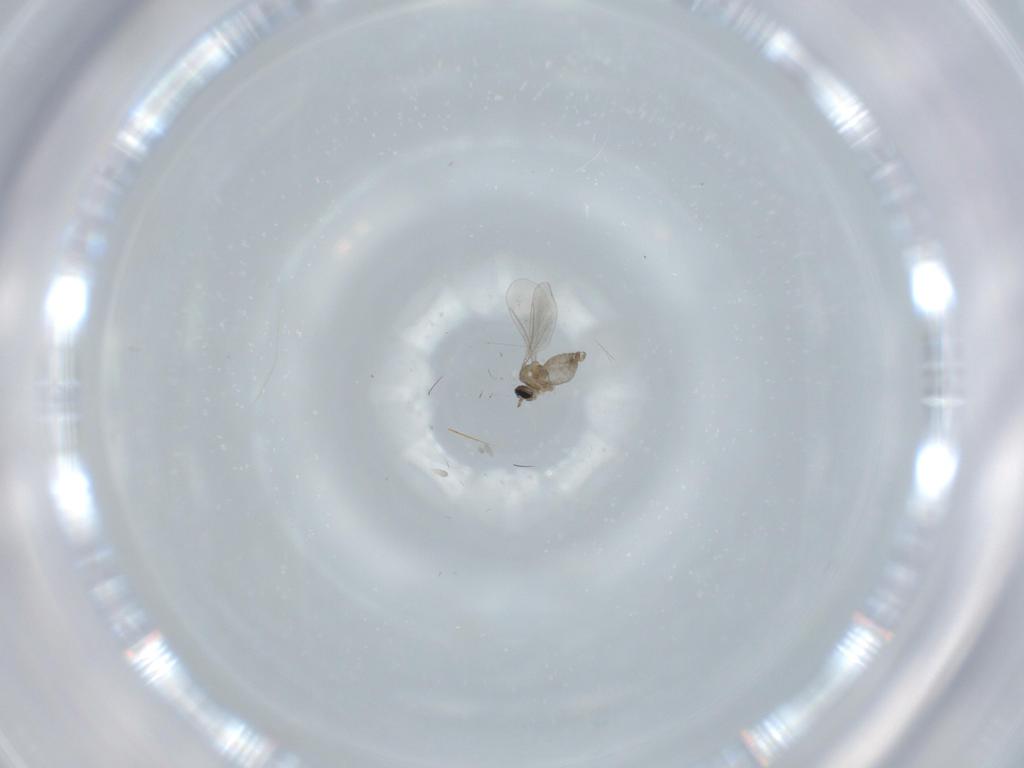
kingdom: Animalia
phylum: Arthropoda
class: Insecta
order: Diptera
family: Cecidomyiidae
